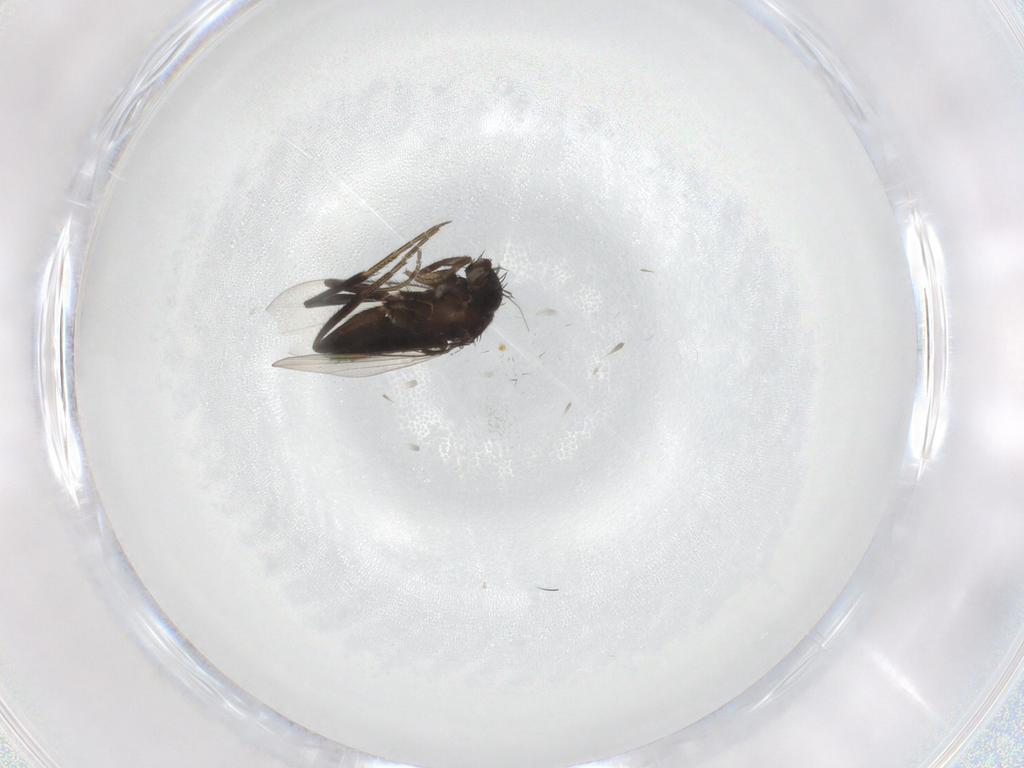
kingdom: Animalia
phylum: Arthropoda
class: Insecta
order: Diptera
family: Phoridae
